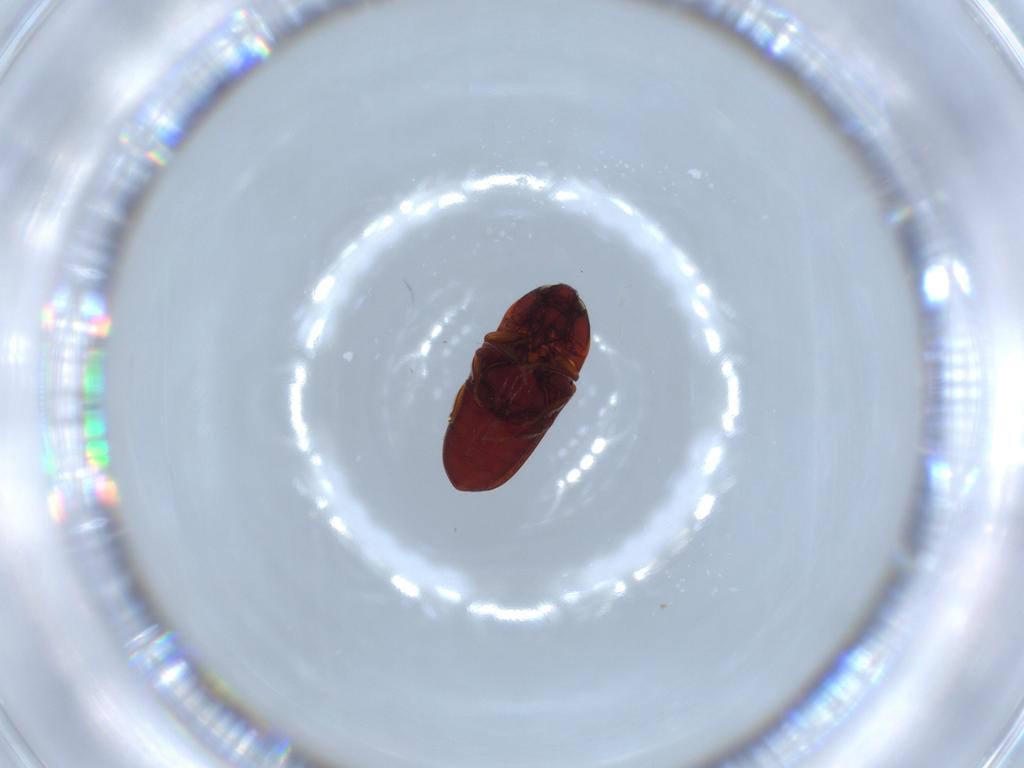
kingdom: Animalia
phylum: Arthropoda
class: Insecta
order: Coleoptera
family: Throscidae
